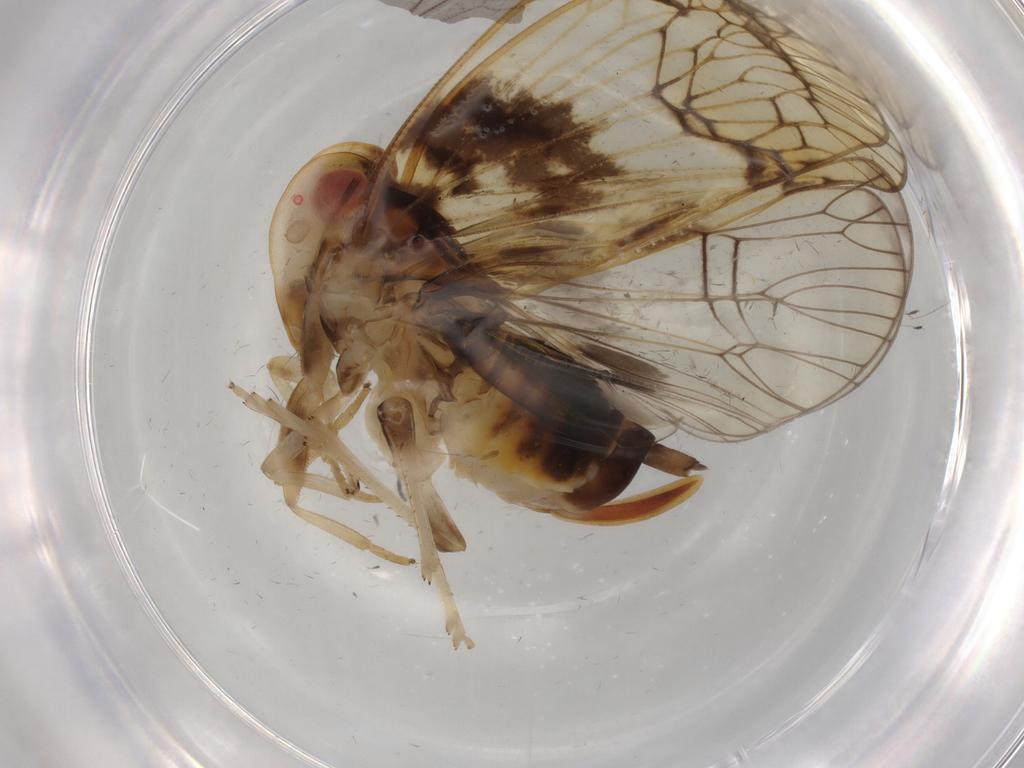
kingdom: Animalia
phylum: Arthropoda
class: Insecta
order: Hemiptera
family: Cixiidae
